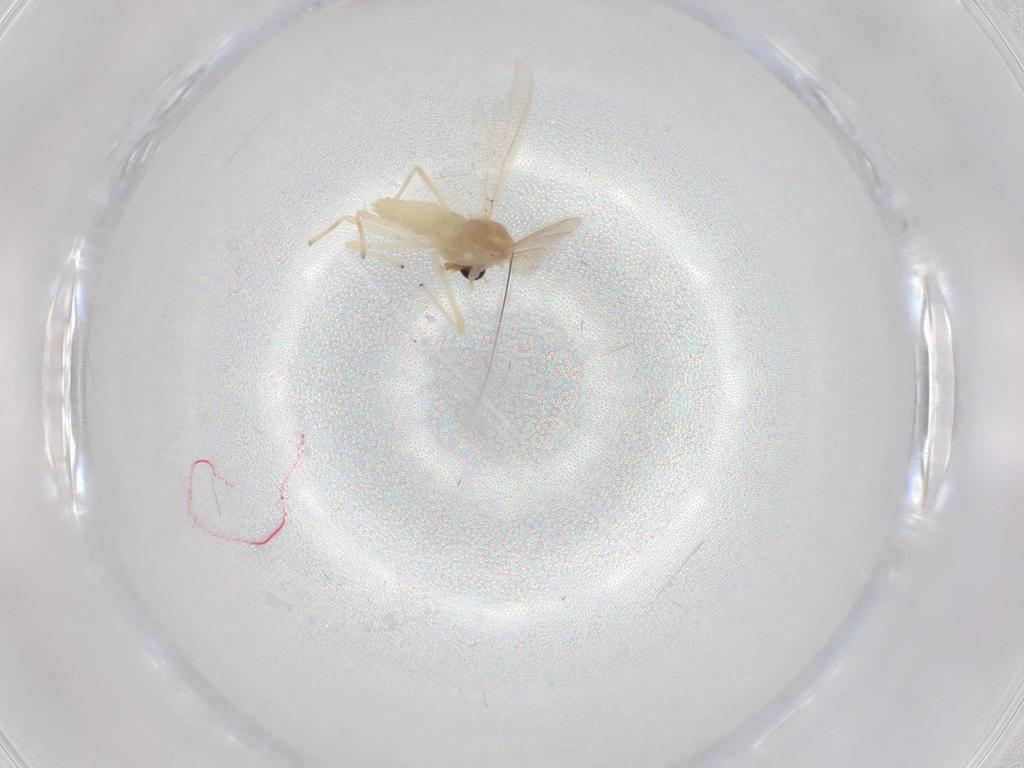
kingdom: Animalia
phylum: Arthropoda
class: Insecta
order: Diptera
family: Chironomidae
